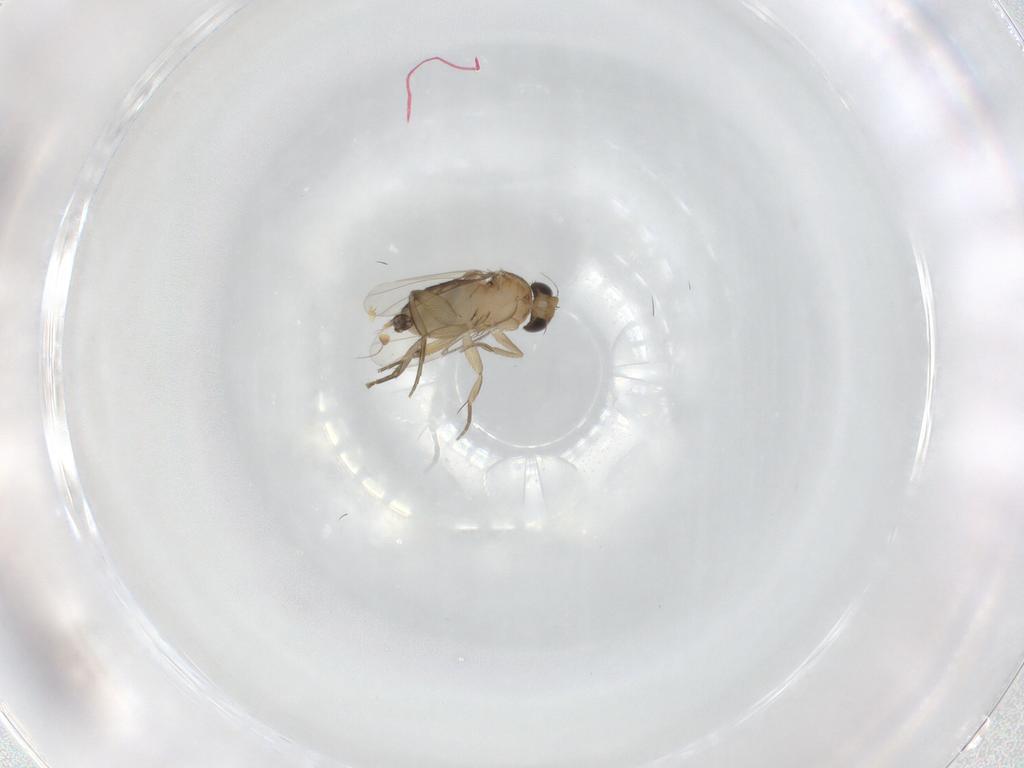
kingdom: Animalia
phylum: Arthropoda
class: Insecta
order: Diptera
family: Phoridae
